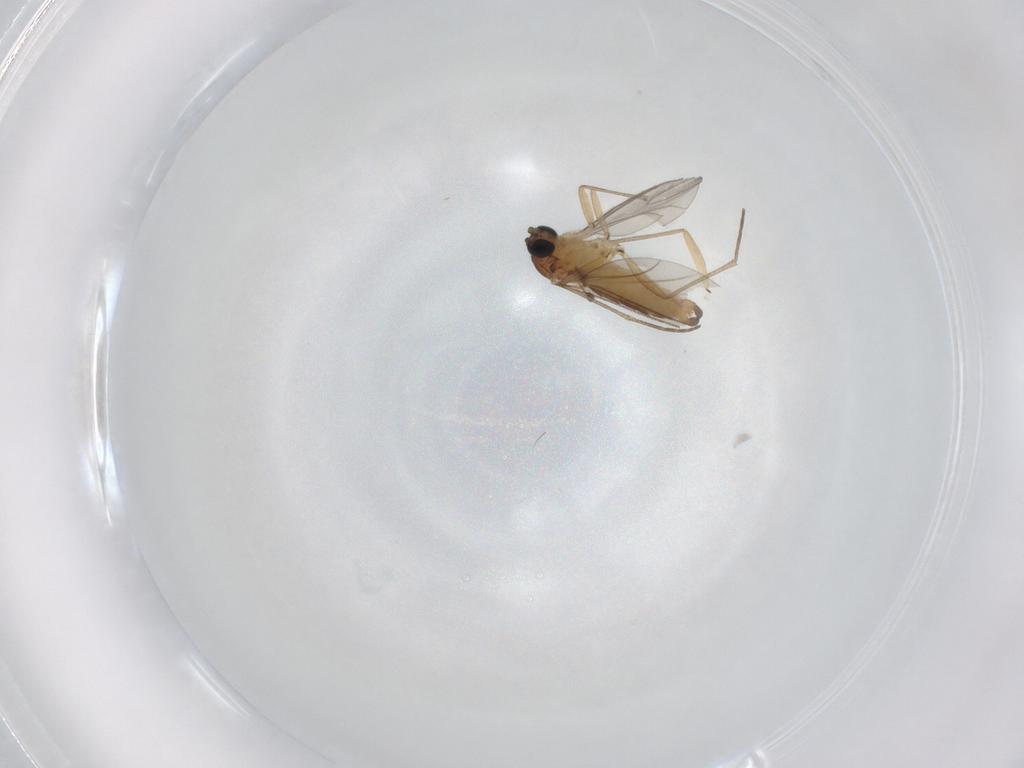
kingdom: Animalia
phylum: Arthropoda
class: Insecta
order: Diptera
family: Sciaridae
